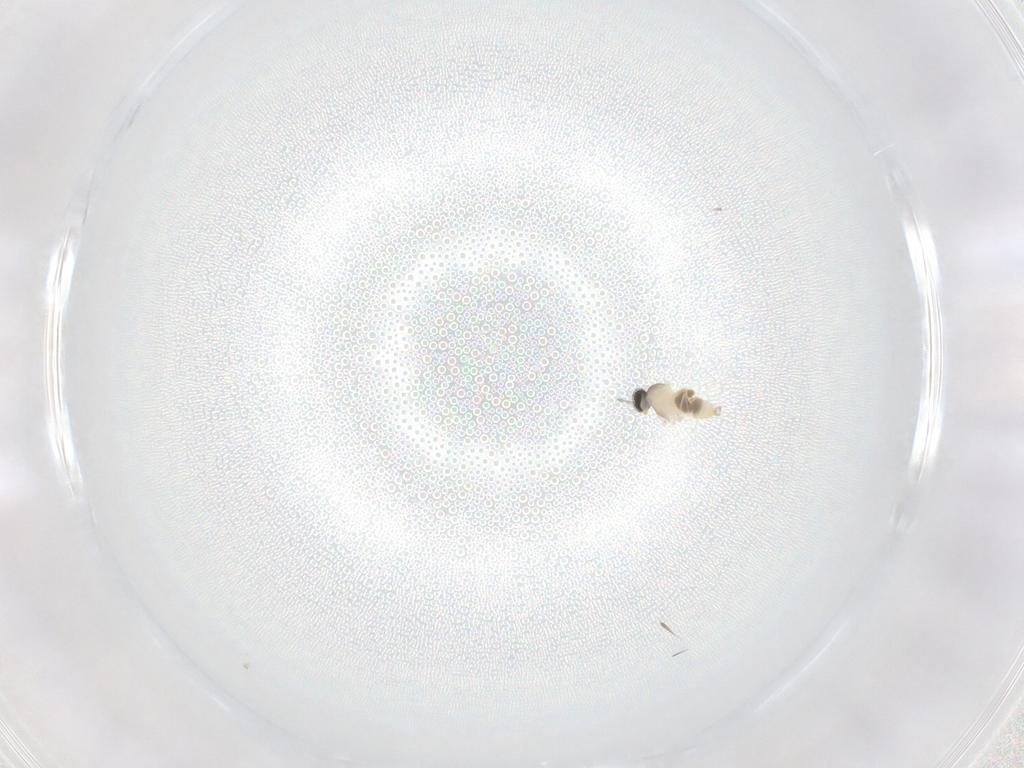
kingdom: Animalia
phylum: Arthropoda
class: Insecta
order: Diptera
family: Cecidomyiidae
